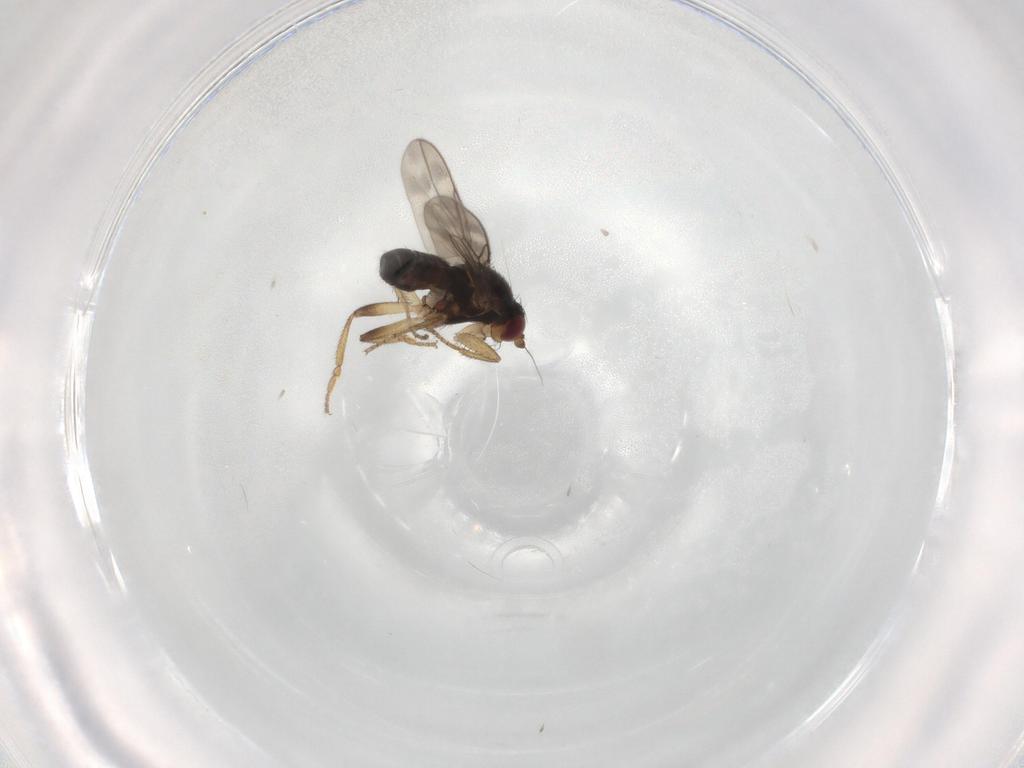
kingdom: Animalia
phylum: Arthropoda
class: Insecta
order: Diptera
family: Sphaeroceridae
